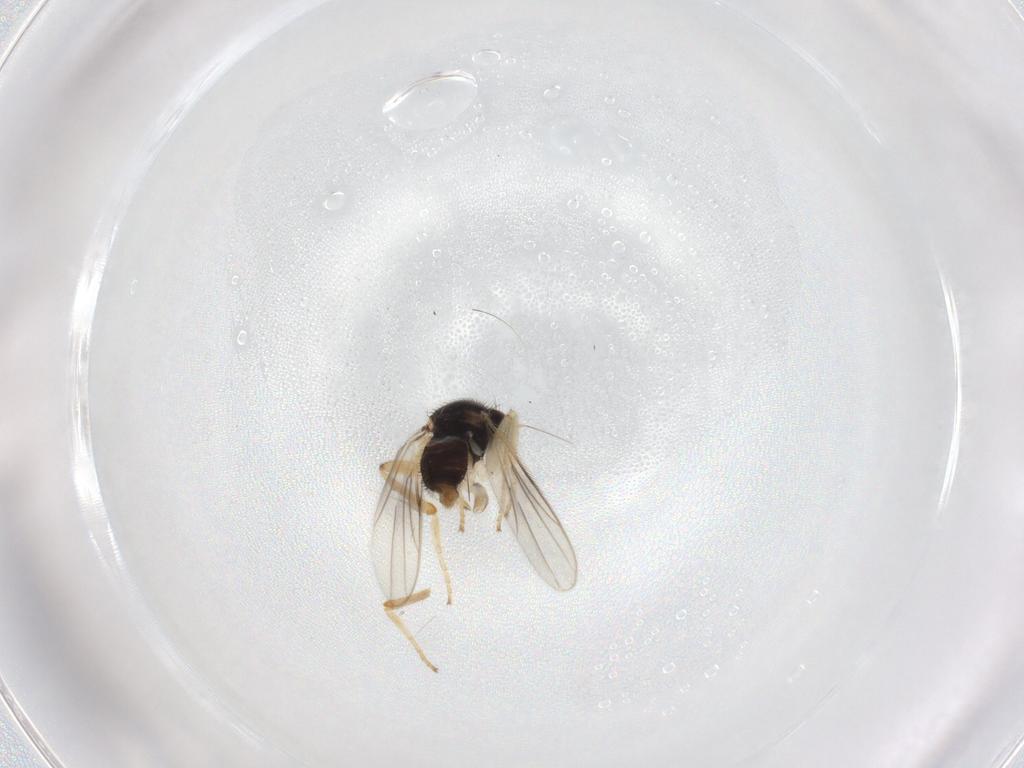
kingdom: Animalia
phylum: Arthropoda
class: Insecta
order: Diptera
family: Hybotidae
